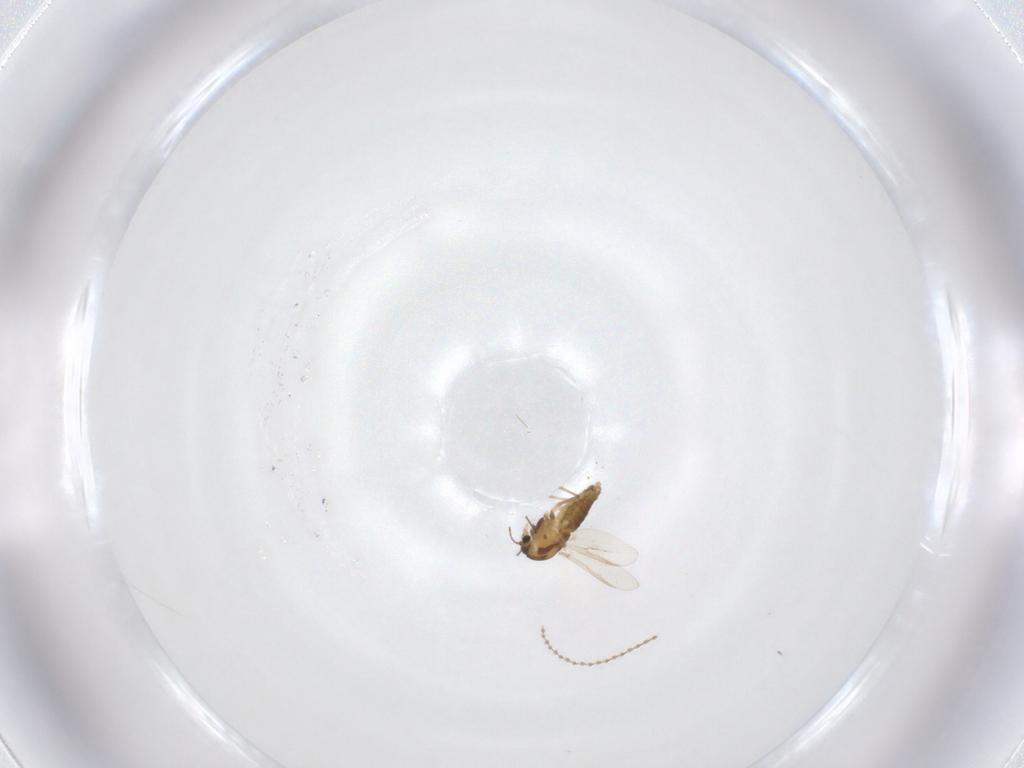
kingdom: Animalia
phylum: Arthropoda
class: Insecta
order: Diptera
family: Chironomidae
